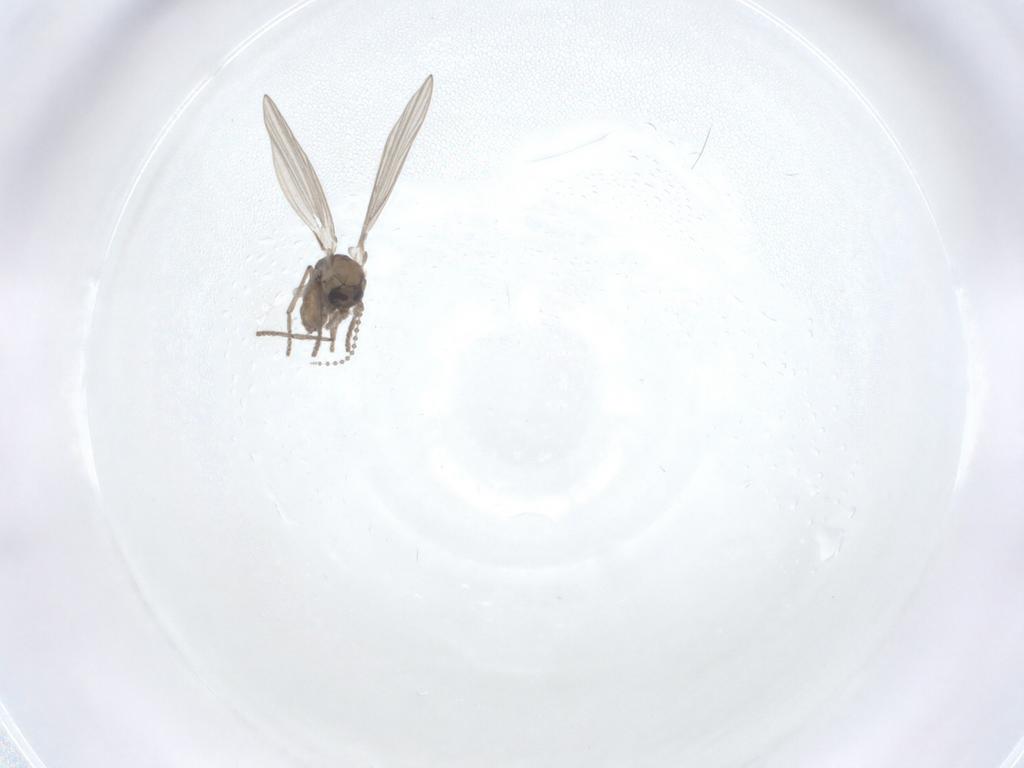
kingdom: Animalia
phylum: Arthropoda
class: Insecta
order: Diptera
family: Psychodidae
